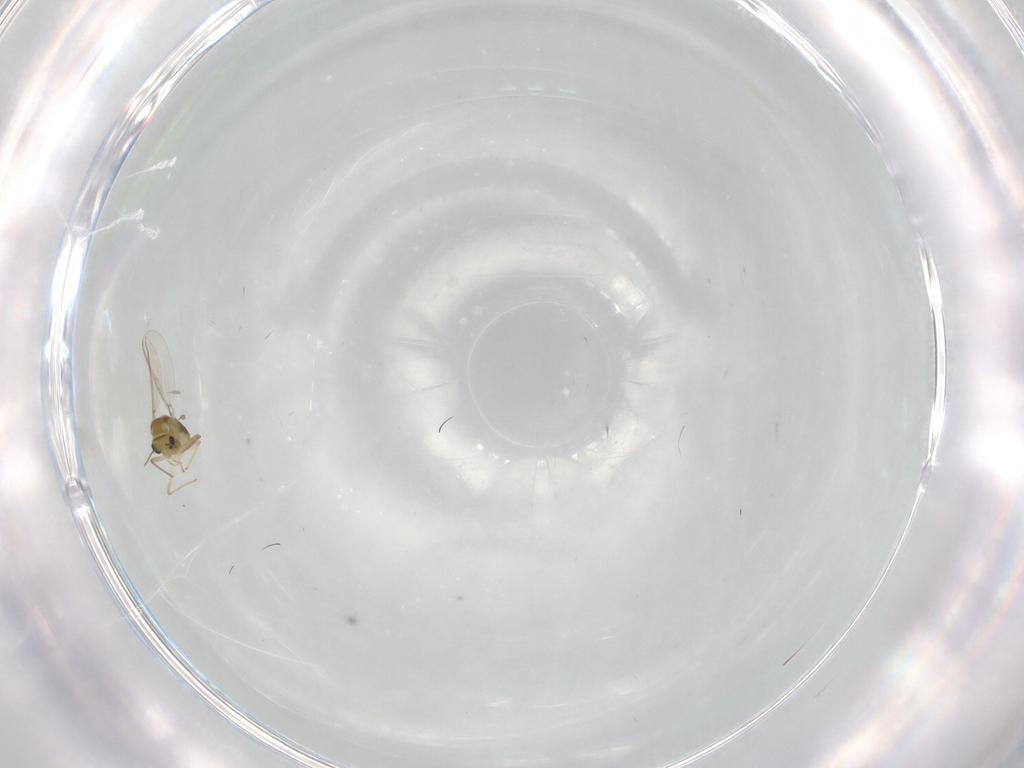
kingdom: Animalia
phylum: Arthropoda
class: Insecta
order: Diptera
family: Chironomidae
